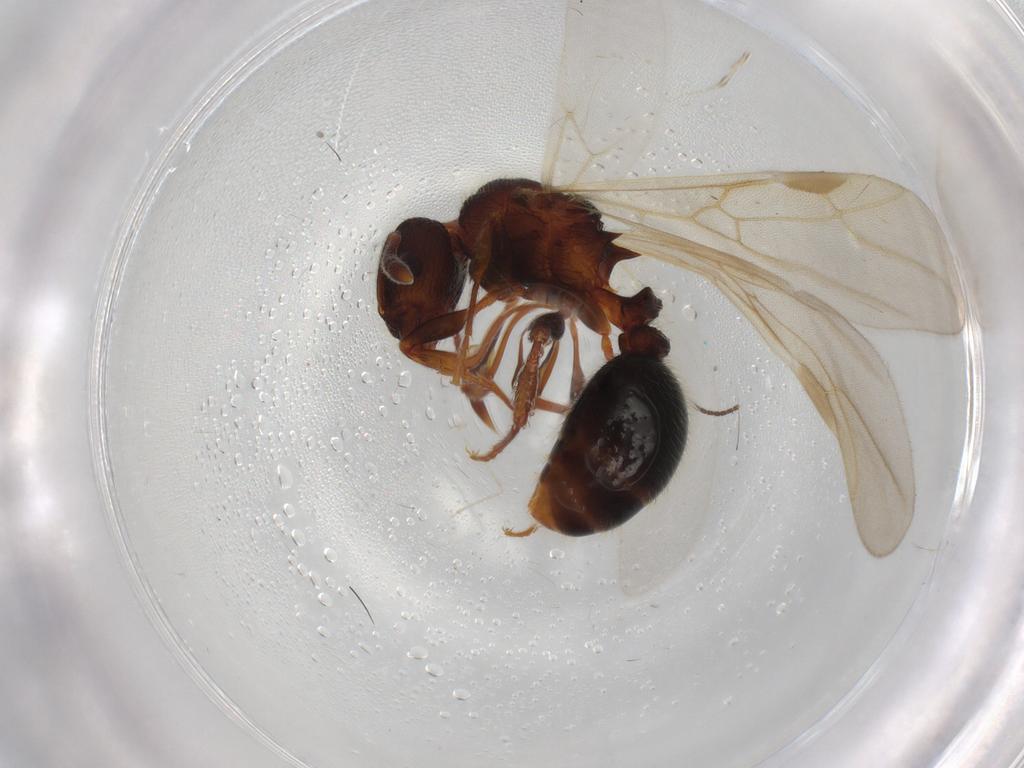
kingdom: Animalia
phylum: Arthropoda
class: Insecta
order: Hymenoptera
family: Formicidae
